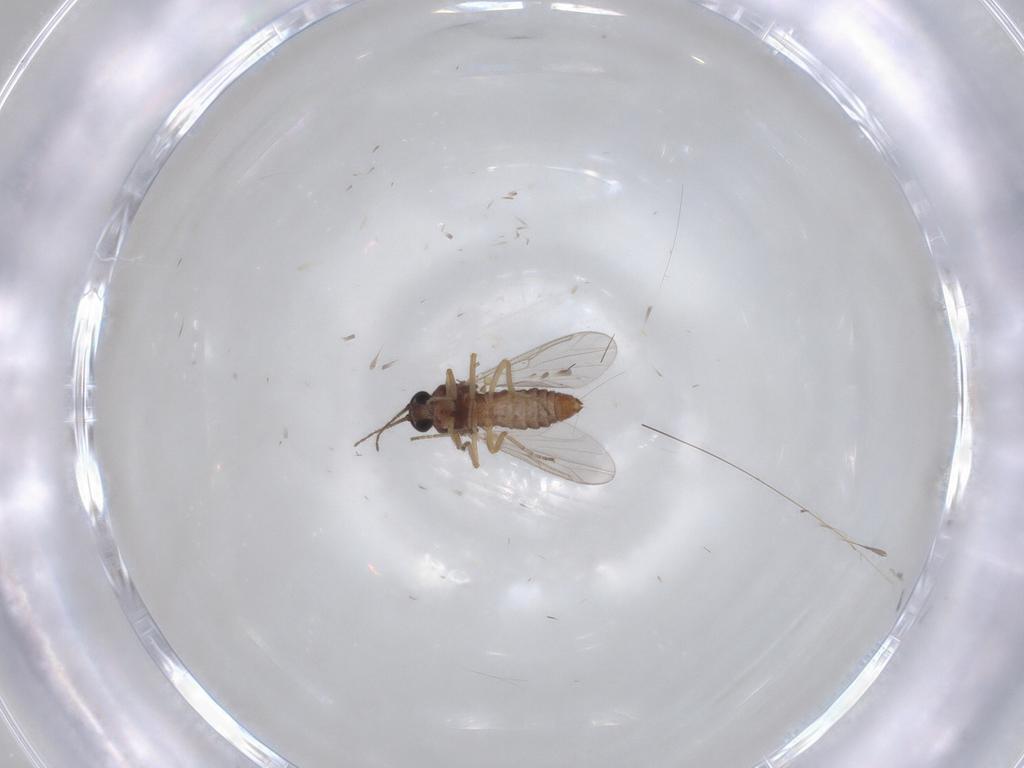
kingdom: Animalia
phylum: Arthropoda
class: Insecta
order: Diptera
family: Ceratopogonidae
